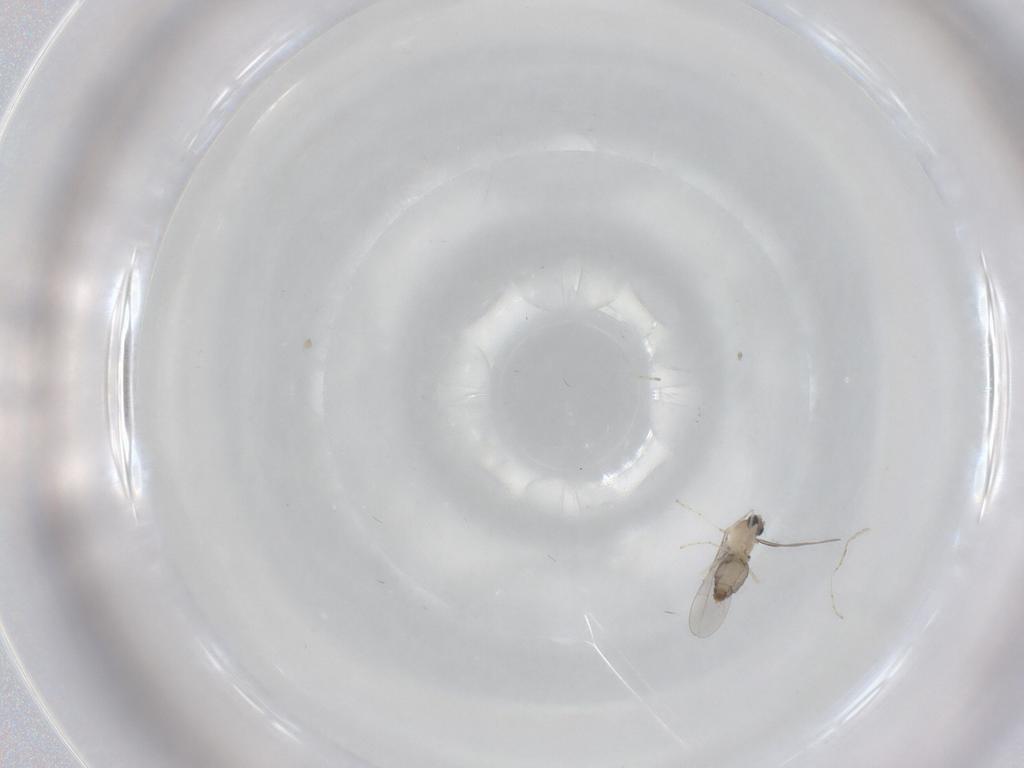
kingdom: Animalia
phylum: Arthropoda
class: Insecta
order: Diptera
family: Cecidomyiidae
